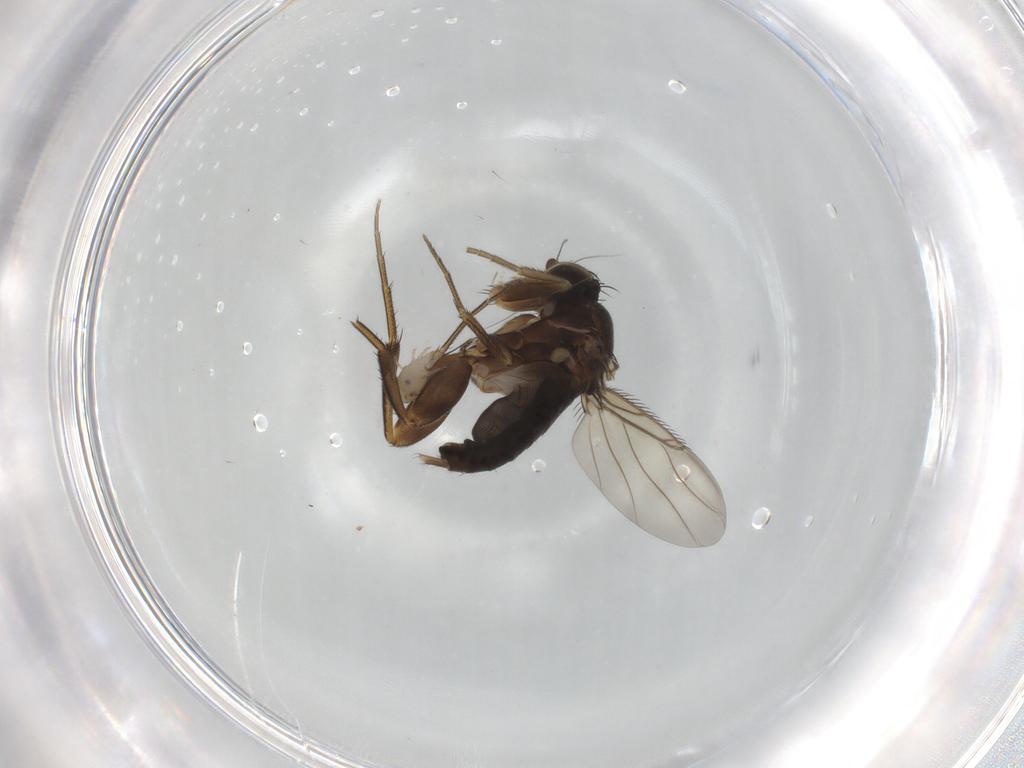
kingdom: Animalia
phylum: Arthropoda
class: Insecta
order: Diptera
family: Phoridae
